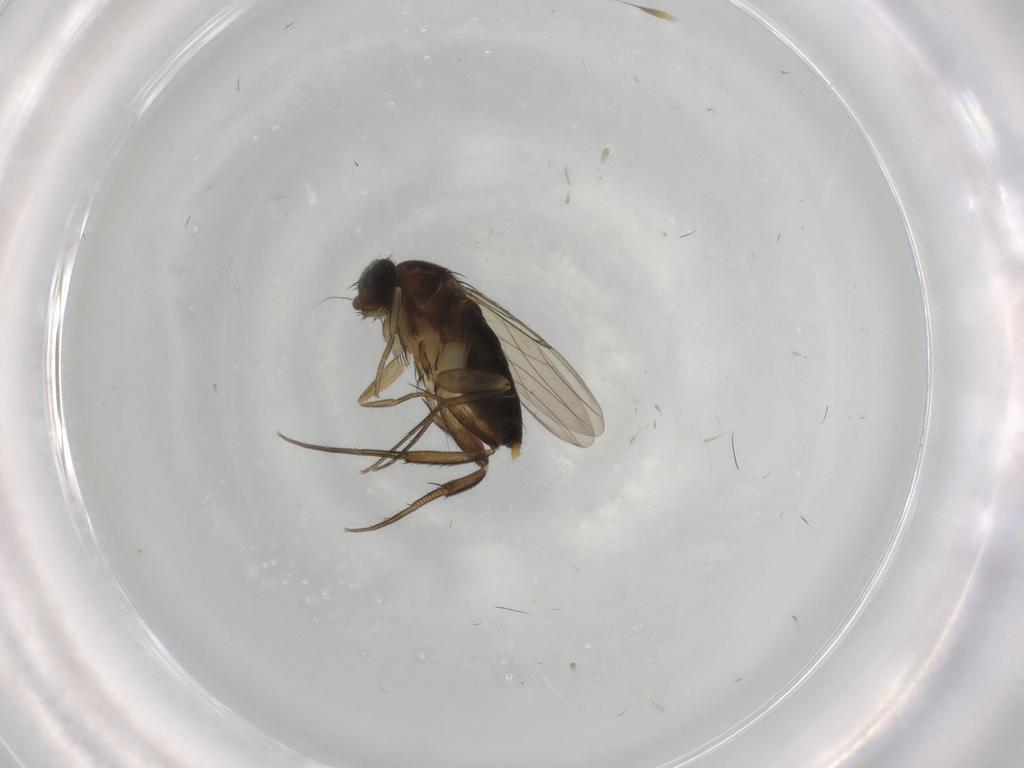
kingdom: Animalia
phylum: Arthropoda
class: Insecta
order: Diptera
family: Phoridae
